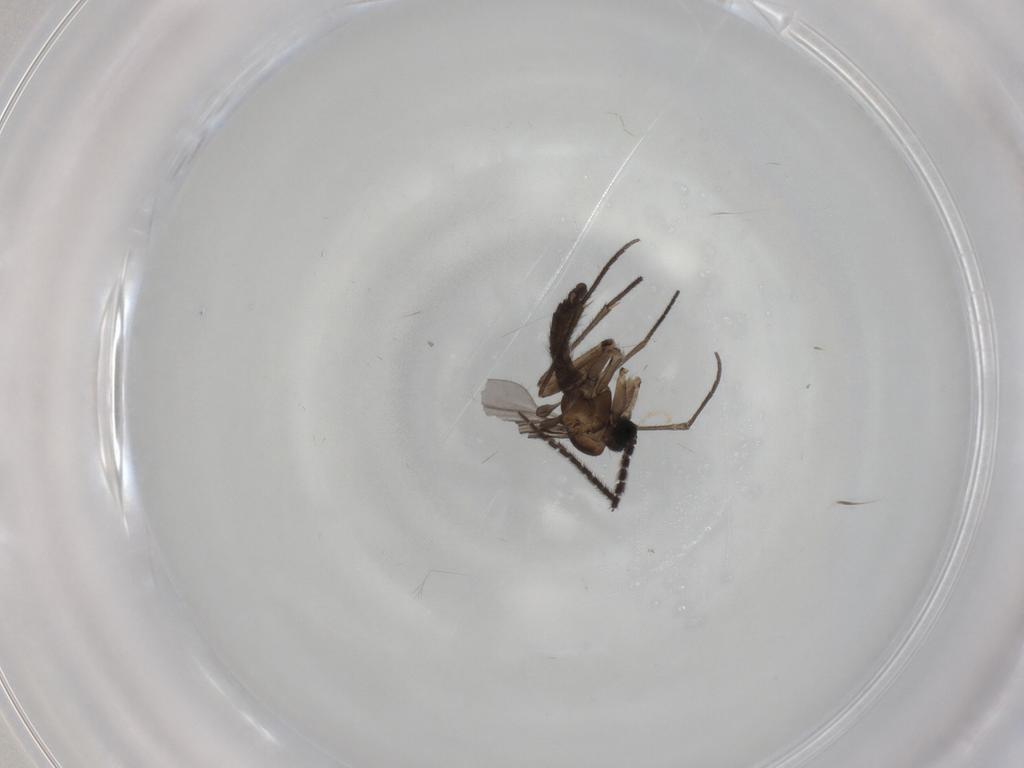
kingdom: Animalia
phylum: Arthropoda
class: Insecta
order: Diptera
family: Sciaridae
